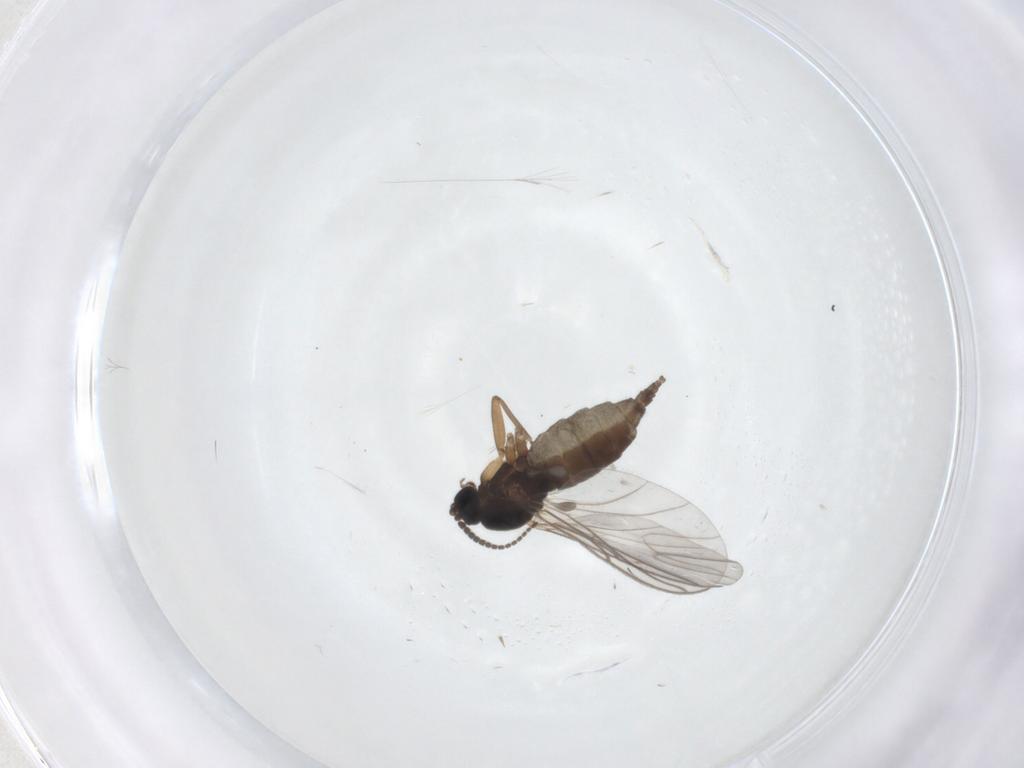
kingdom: Animalia
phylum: Arthropoda
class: Insecta
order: Diptera
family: Sciaridae
